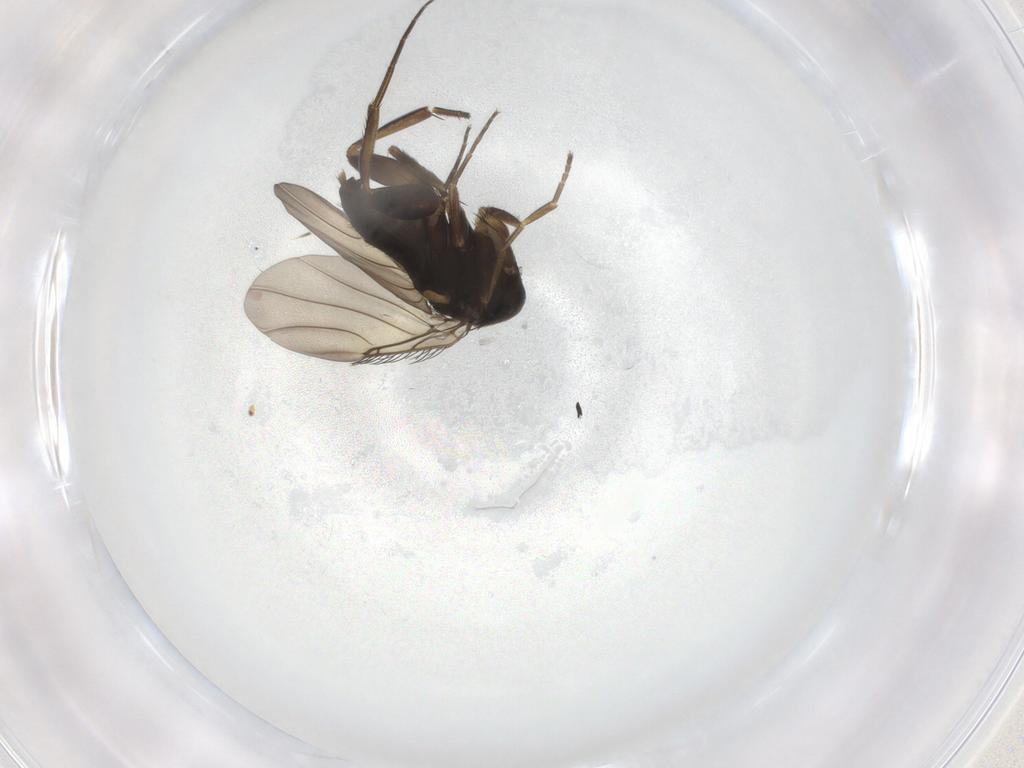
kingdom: Animalia
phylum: Arthropoda
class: Insecta
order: Diptera
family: Phoridae
